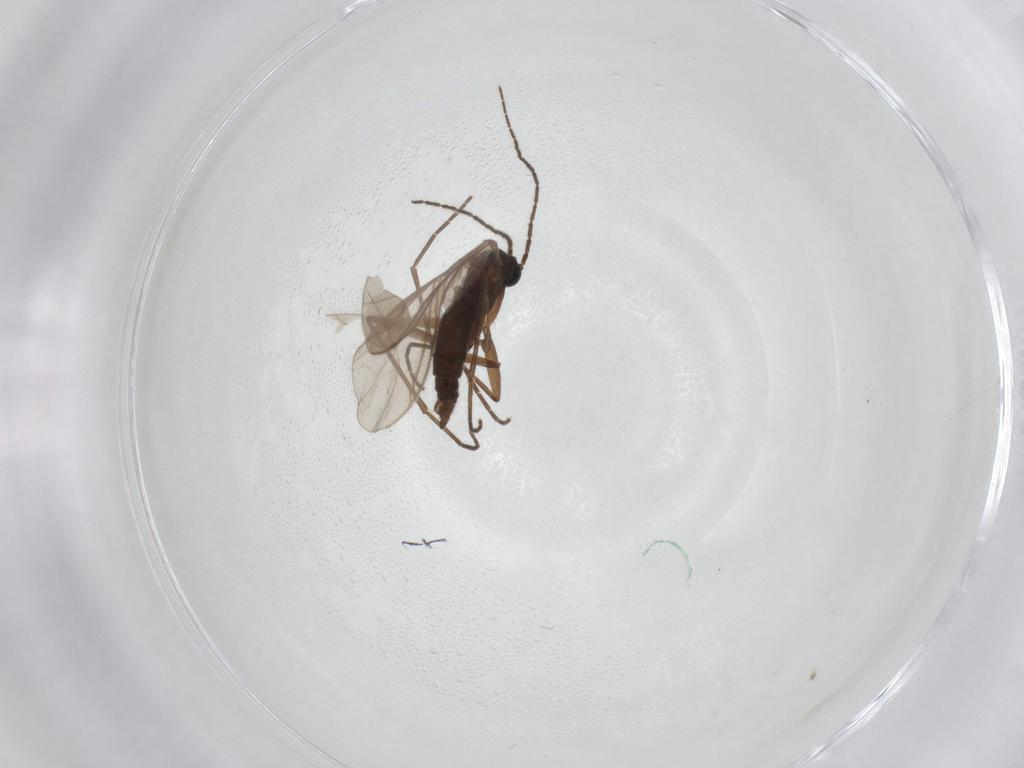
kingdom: Animalia
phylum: Arthropoda
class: Insecta
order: Diptera
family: Sciaridae
